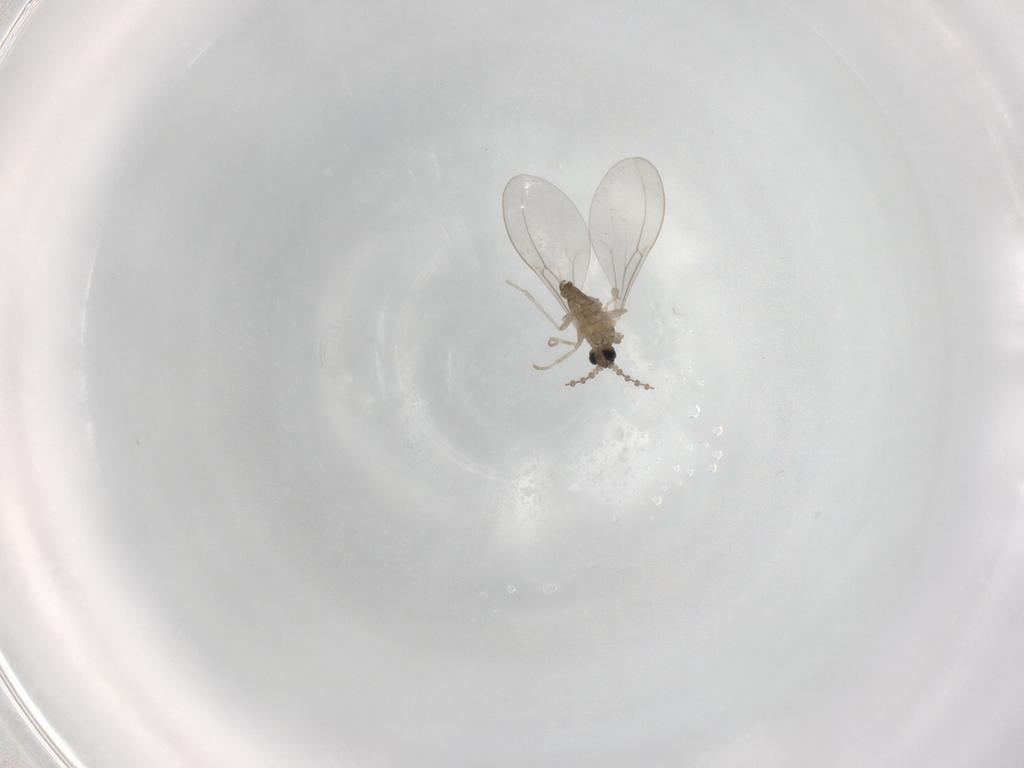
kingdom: Animalia
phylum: Arthropoda
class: Insecta
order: Diptera
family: Cecidomyiidae
